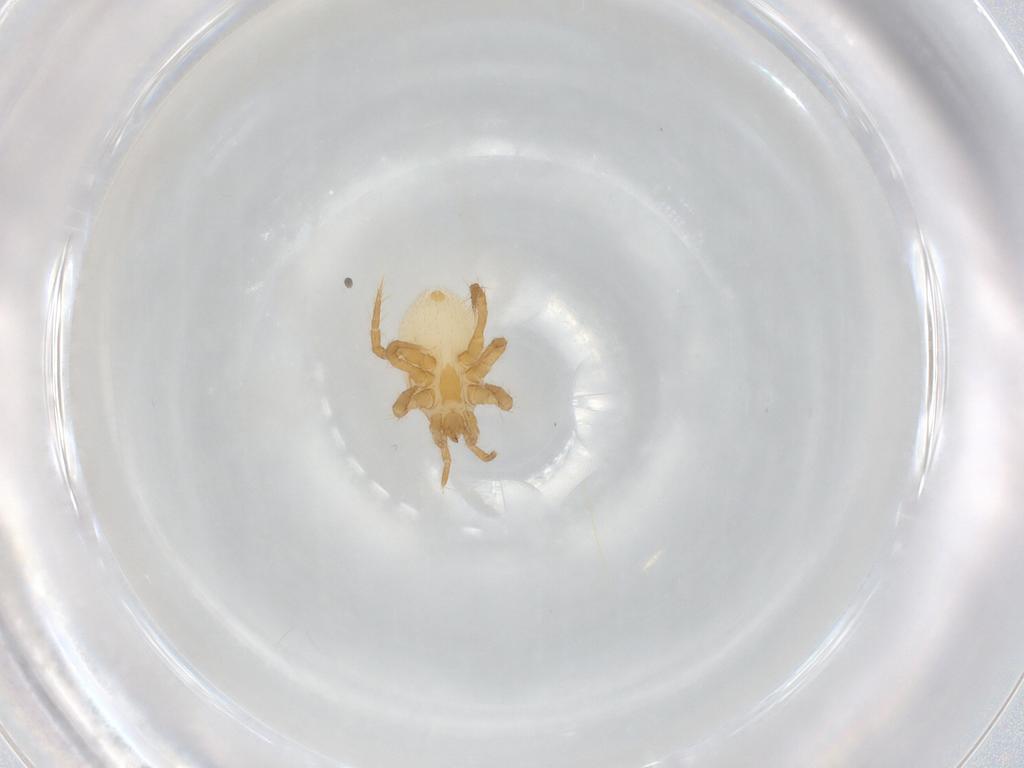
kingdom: Animalia
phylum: Arthropoda
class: Arachnida
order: Mesostigmata
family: Parasitidae
